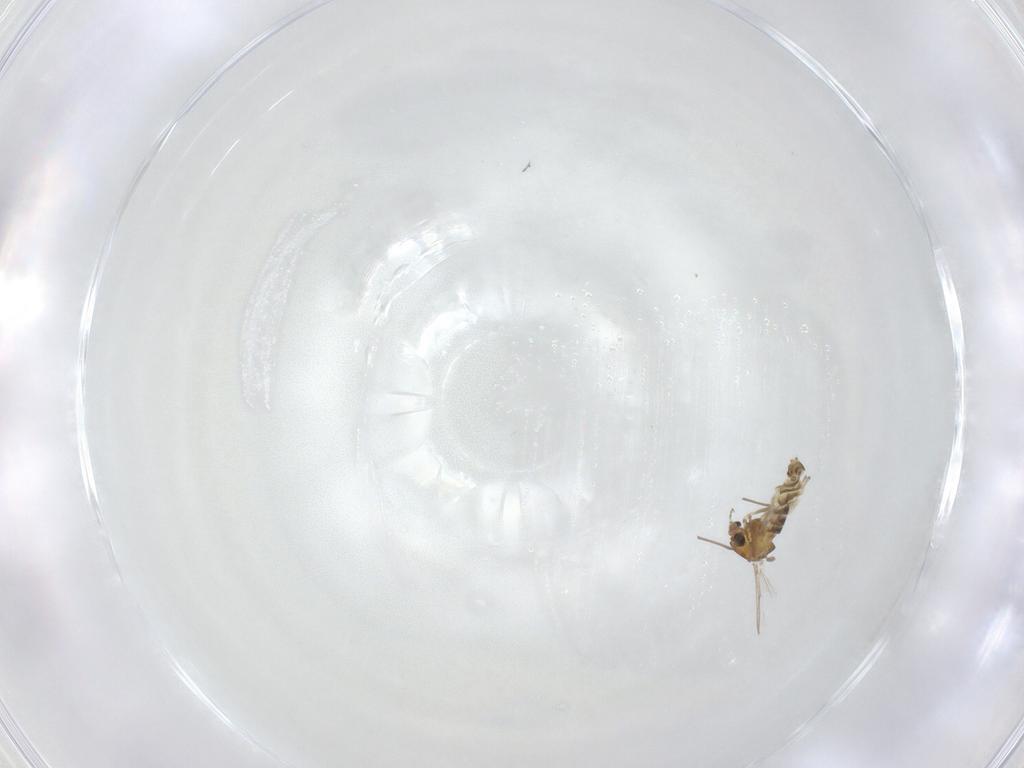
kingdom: Animalia
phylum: Arthropoda
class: Insecta
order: Diptera
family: Chironomidae
